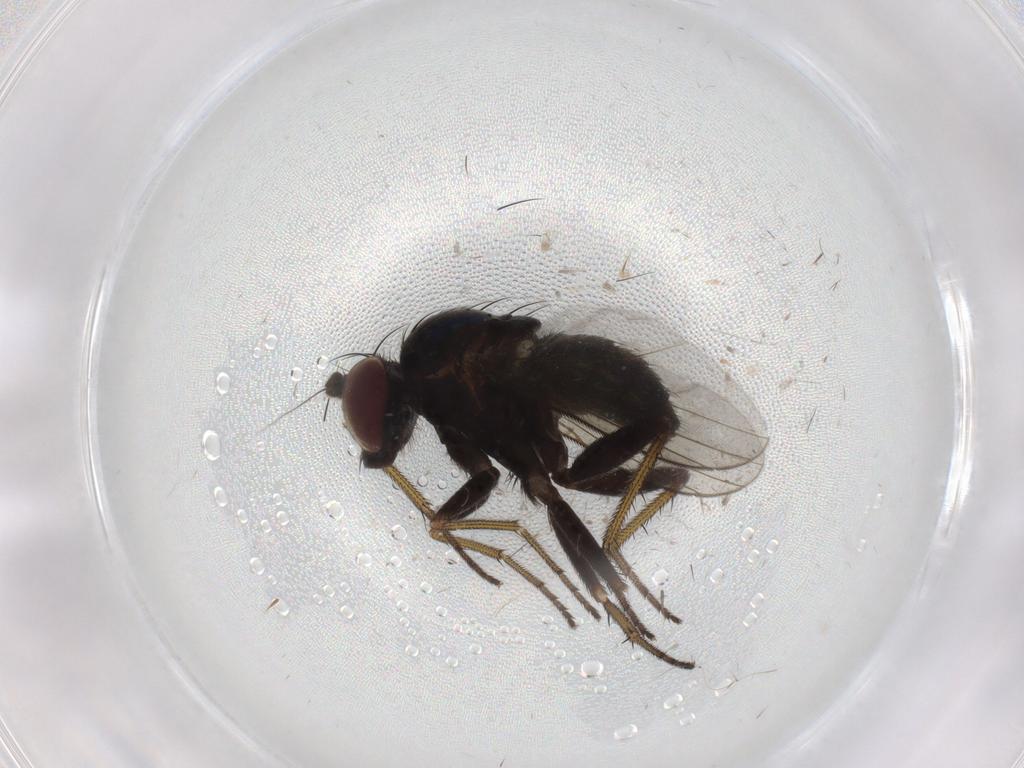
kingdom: Animalia
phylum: Arthropoda
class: Insecta
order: Diptera
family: Dolichopodidae
